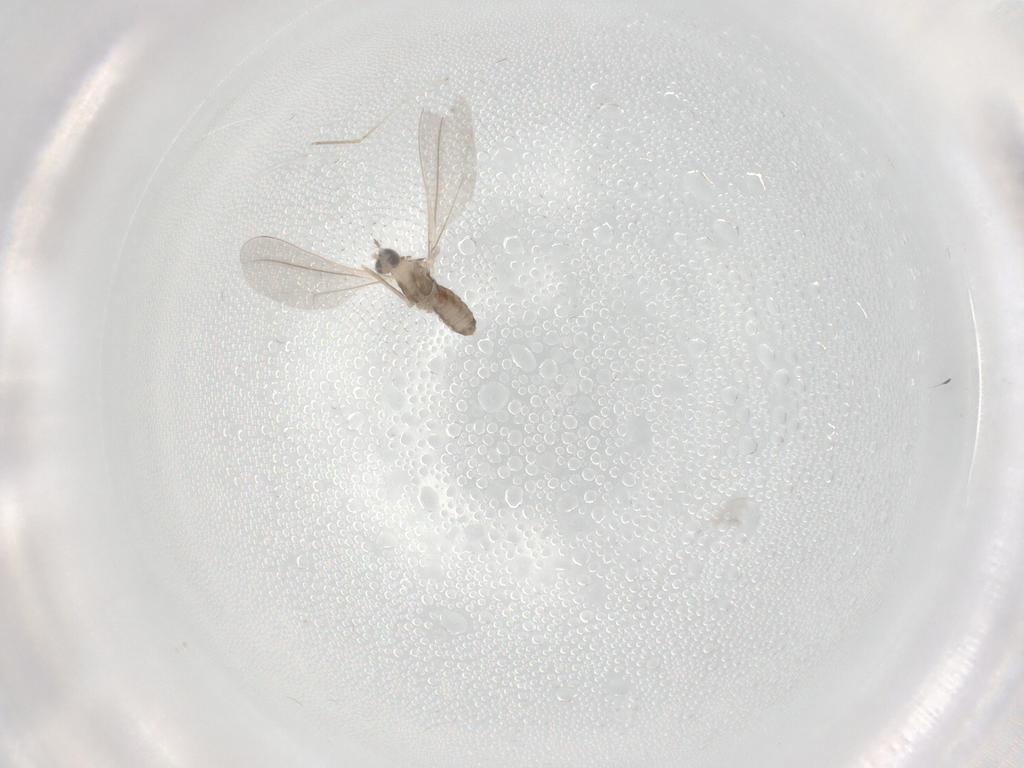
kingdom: Animalia
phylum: Arthropoda
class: Insecta
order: Diptera
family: Cecidomyiidae
